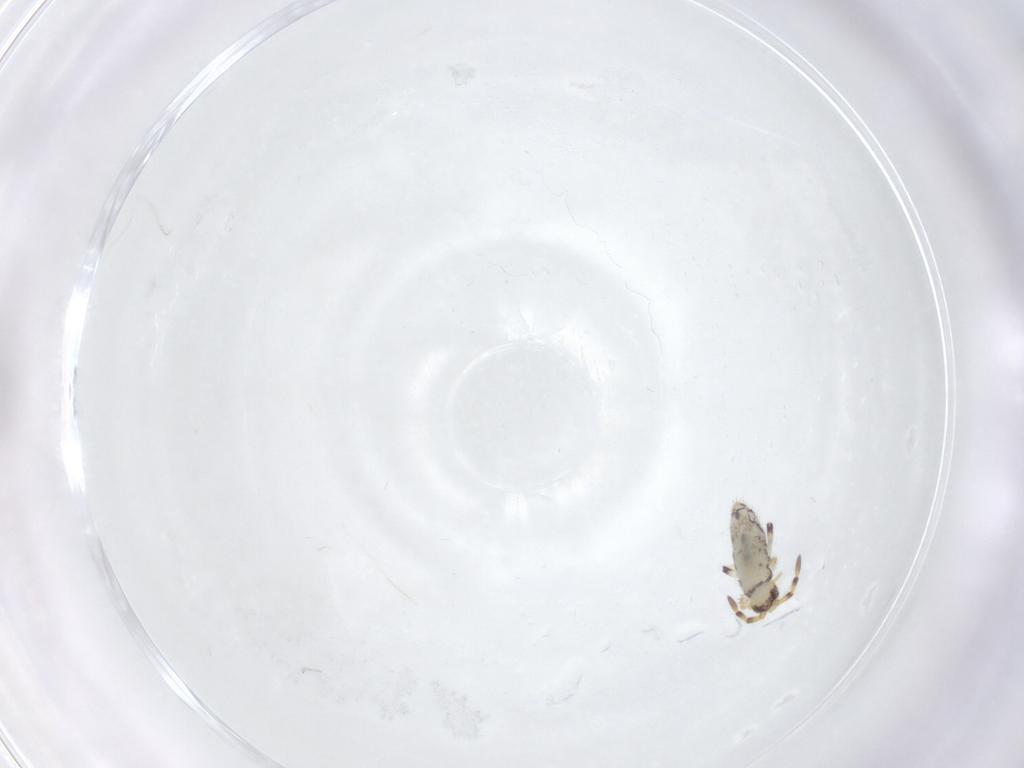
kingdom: Animalia
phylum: Arthropoda
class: Collembola
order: Entomobryomorpha
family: Isotomidae
